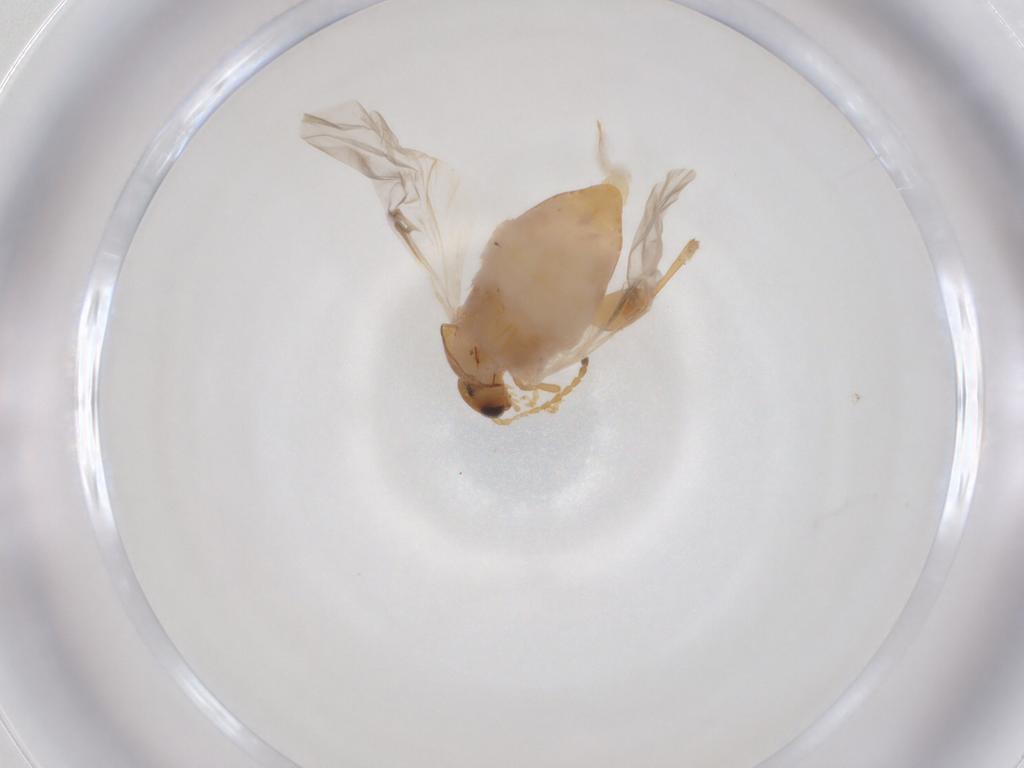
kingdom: Animalia
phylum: Arthropoda
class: Insecta
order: Coleoptera
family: Chrysomelidae
